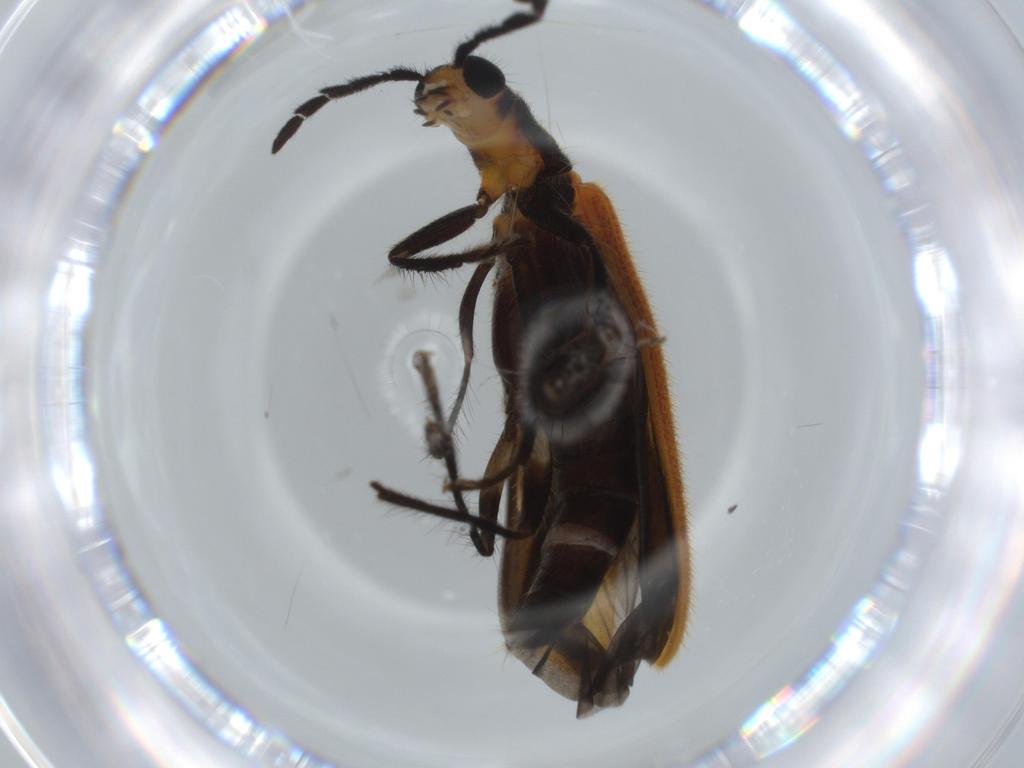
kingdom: Animalia
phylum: Arthropoda
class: Insecta
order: Coleoptera
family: Cleridae
